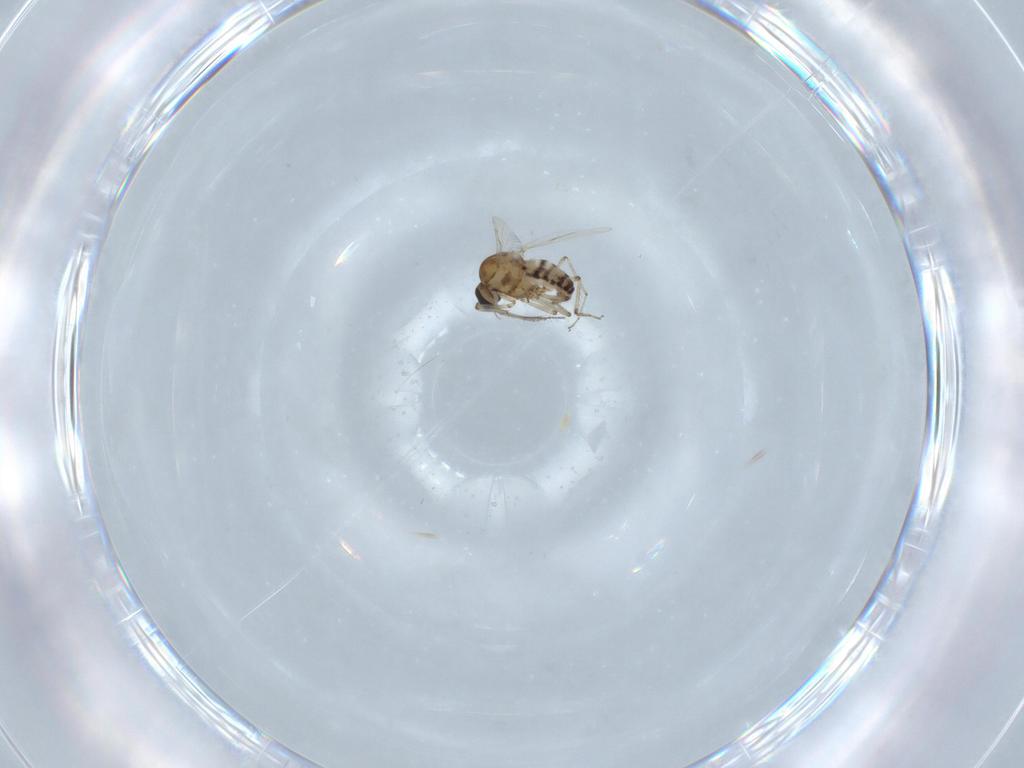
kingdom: Animalia
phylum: Arthropoda
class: Insecta
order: Diptera
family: Ceratopogonidae
